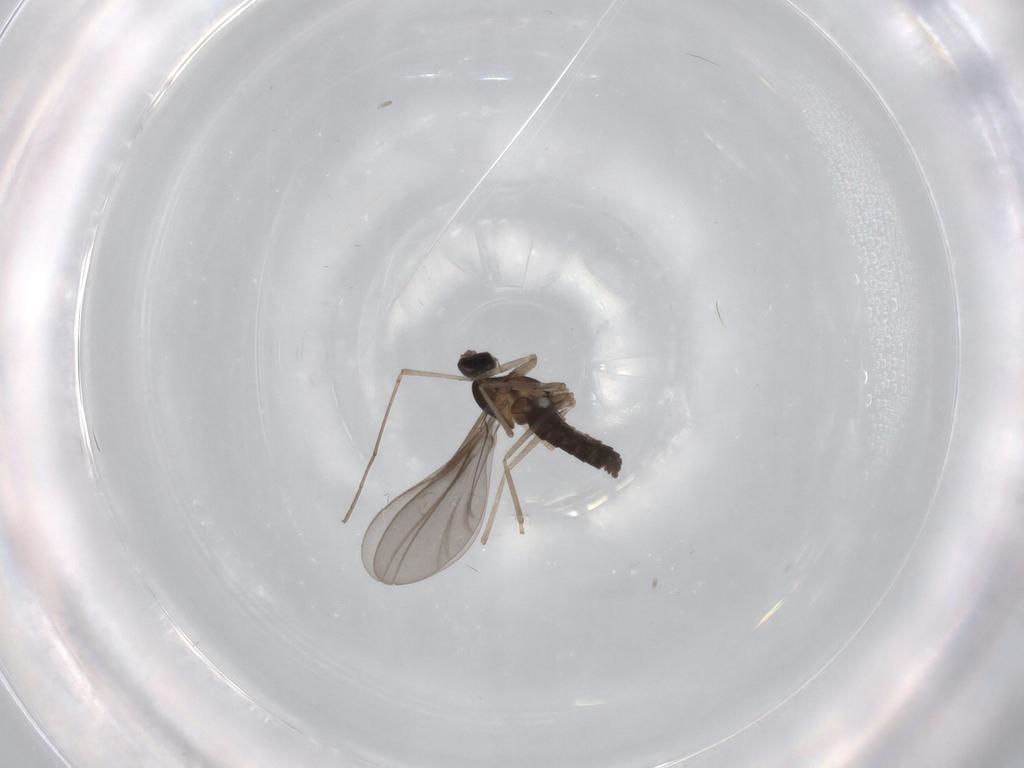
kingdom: Animalia
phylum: Arthropoda
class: Insecta
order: Diptera
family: Cecidomyiidae
